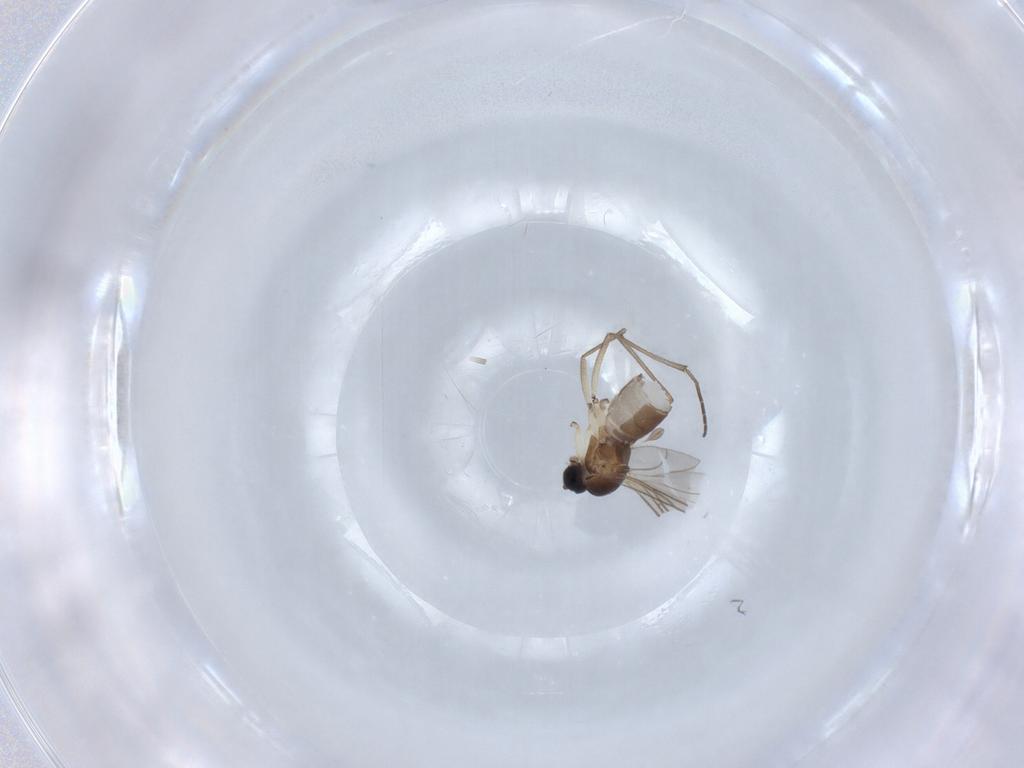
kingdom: Animalia
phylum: Arthropoda
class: Insecta
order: Diptera
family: Sciaridae
